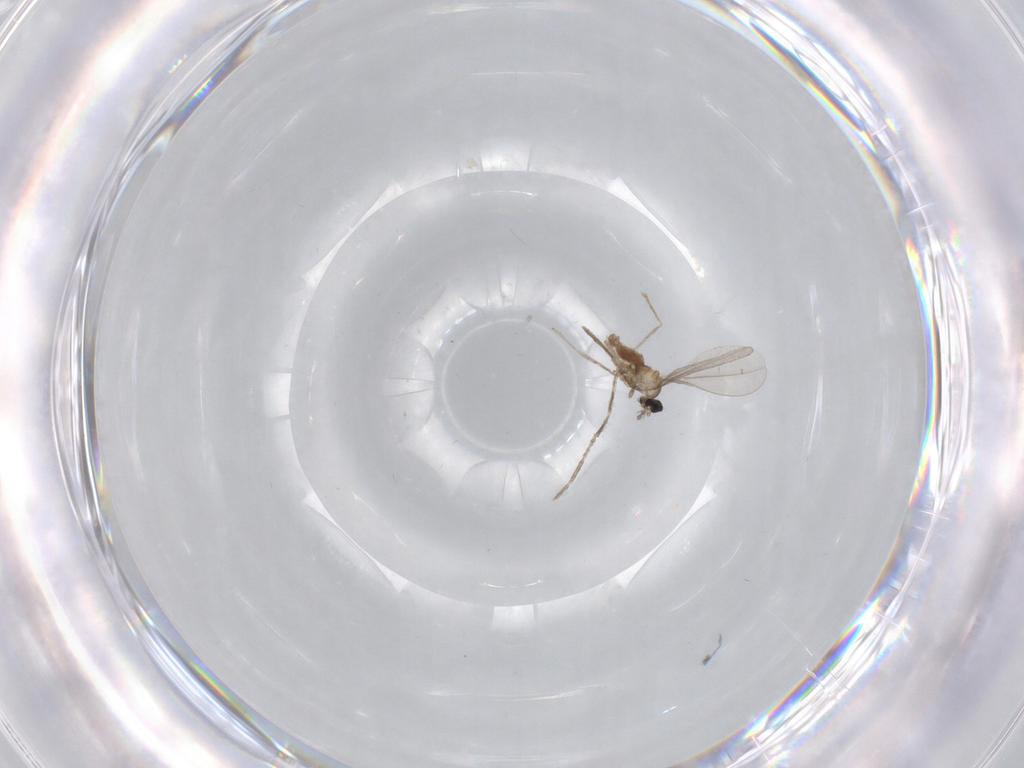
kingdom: Animalia
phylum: Arthropoda
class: Insecta
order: Diptera
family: Cecidomyiidae
